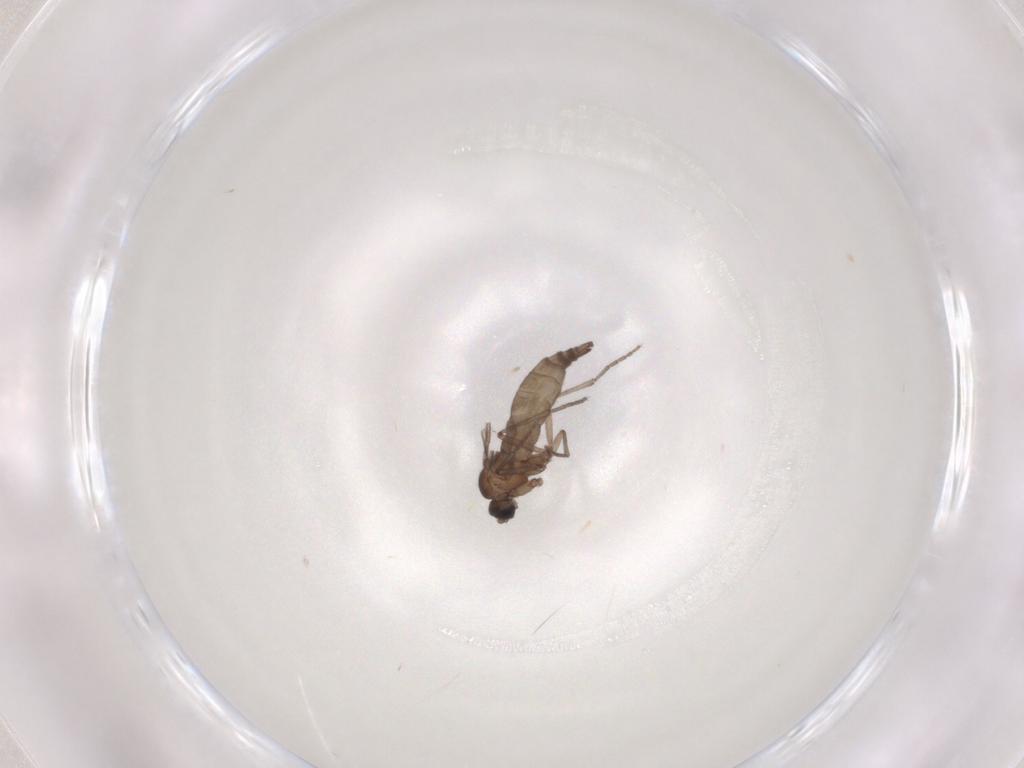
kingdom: Animalia
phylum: Arthropoda
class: Insecta
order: Diptera
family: Sciaridae
